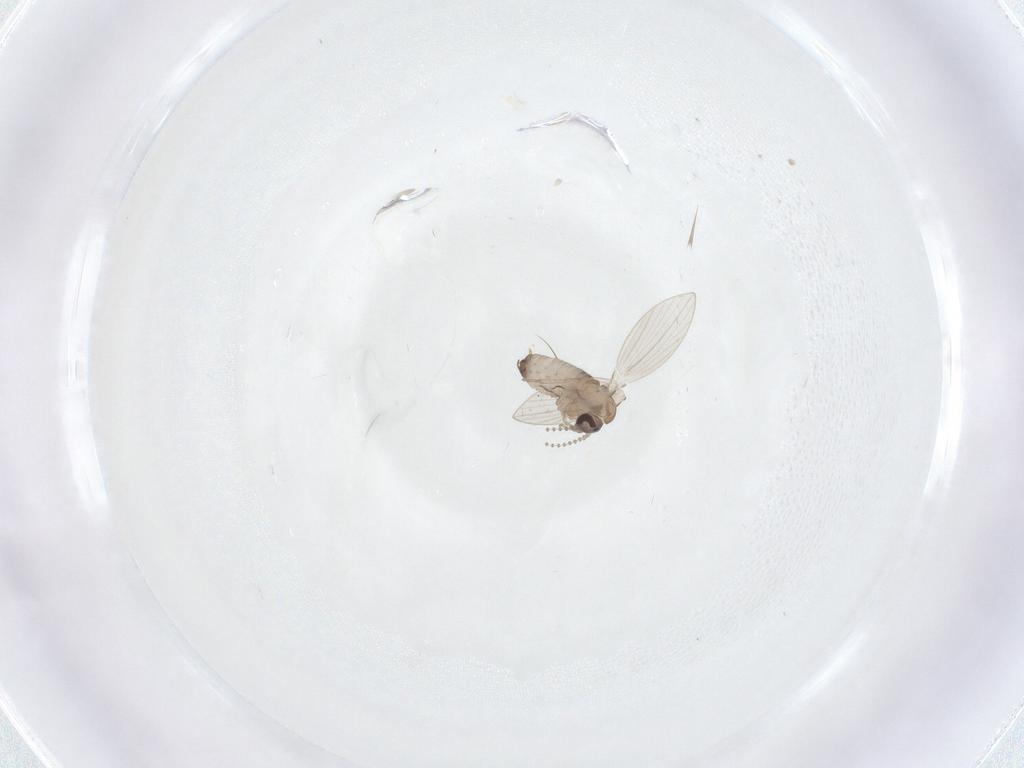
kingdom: Animalia
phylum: Arthropoda
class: Insecta
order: Diptera
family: Psychodidae
